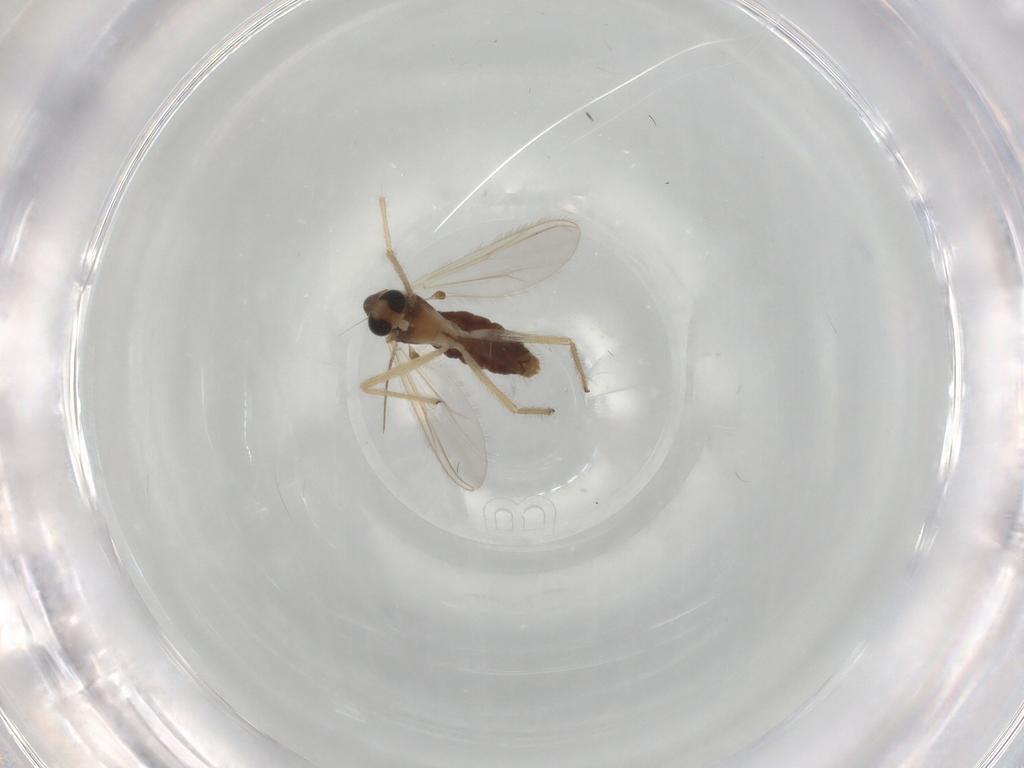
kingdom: Animalia
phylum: Arthropoda
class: Insecta
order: Diptera
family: Chironomidae
